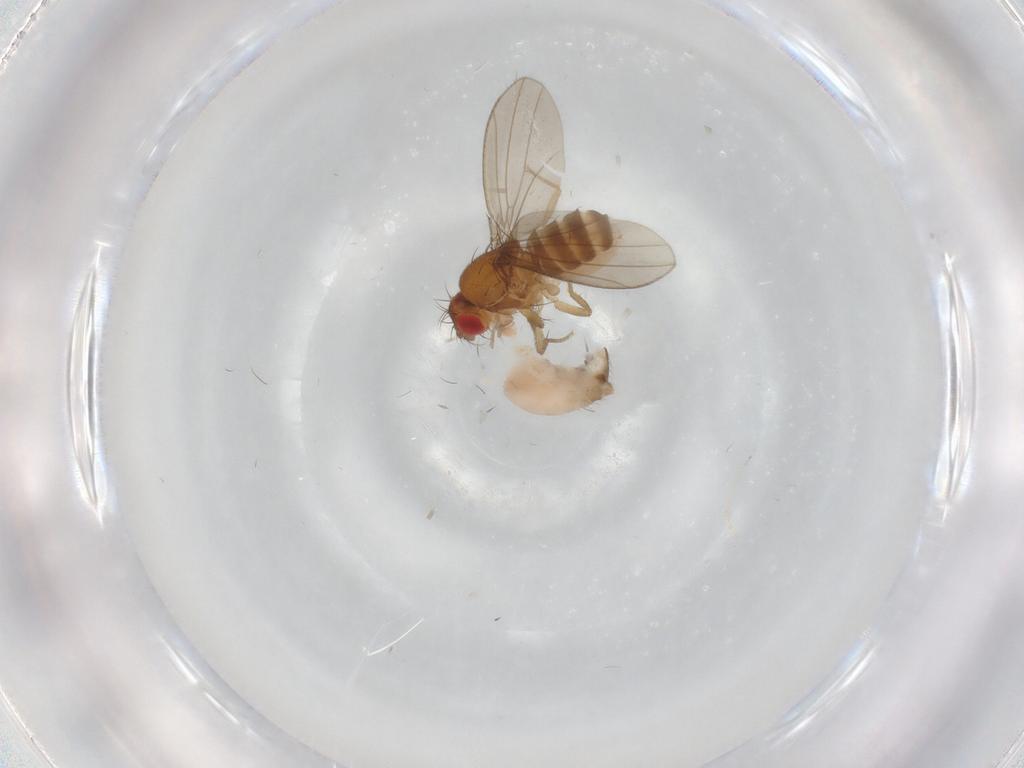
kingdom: Animalia
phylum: Arthropoda
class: Insecta
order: Diptera
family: Drosophilidae
